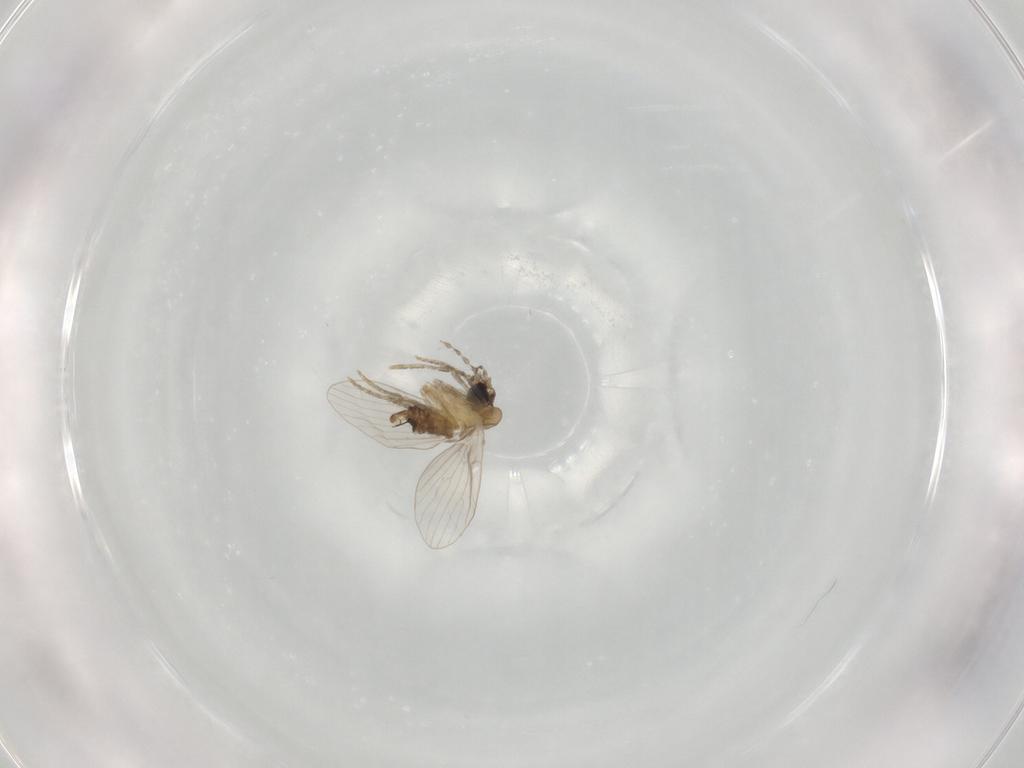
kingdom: Animalia
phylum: Arthropoda
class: Insecta
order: Diptera
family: Psychodidae
